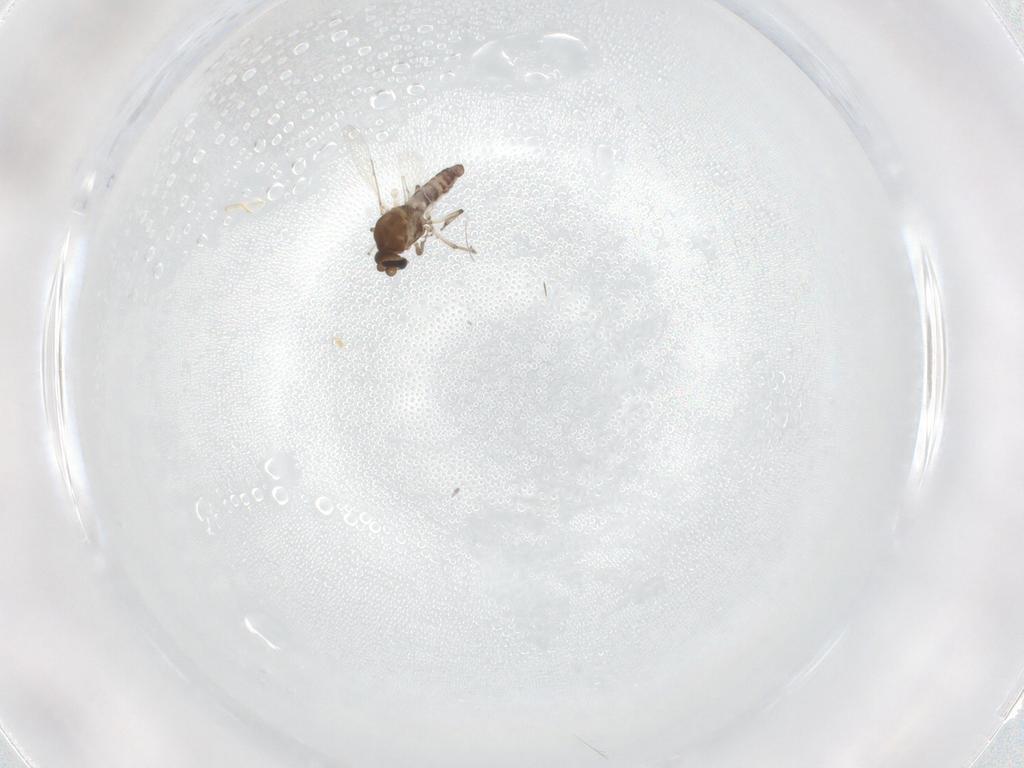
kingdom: Animalia
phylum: Arthropoda
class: Insecta
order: Diptera
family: Ceratopogonidae
